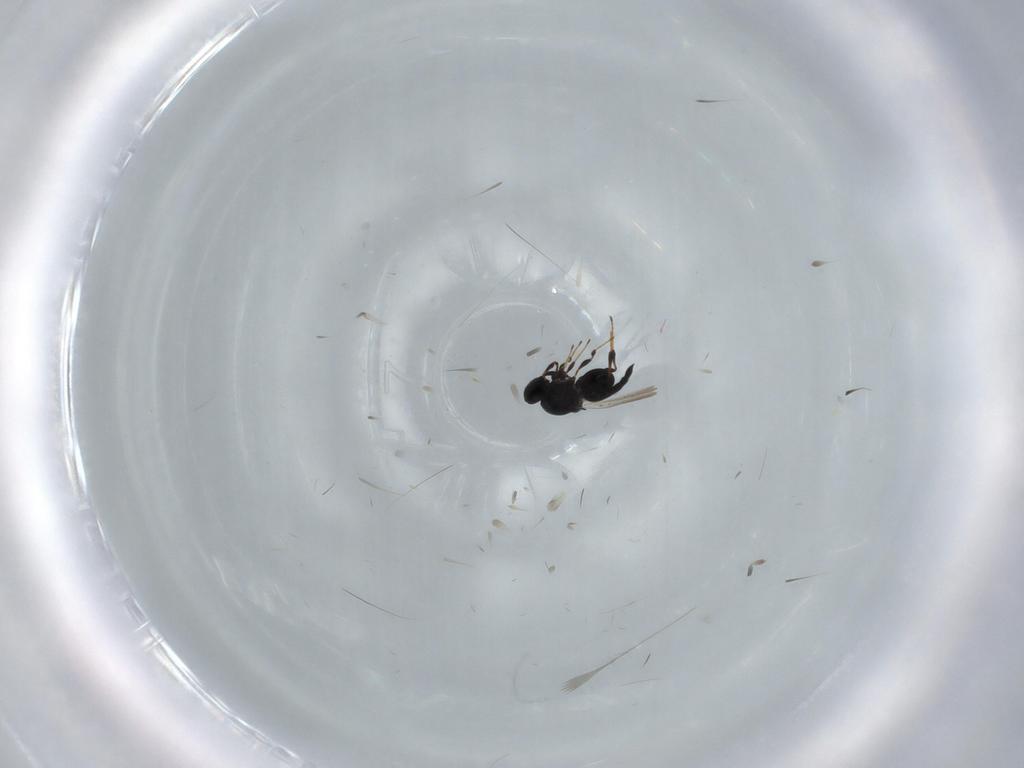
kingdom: Animalia
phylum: Arthropoda
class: Insecta
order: Hymenoptera
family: Platygastridae
